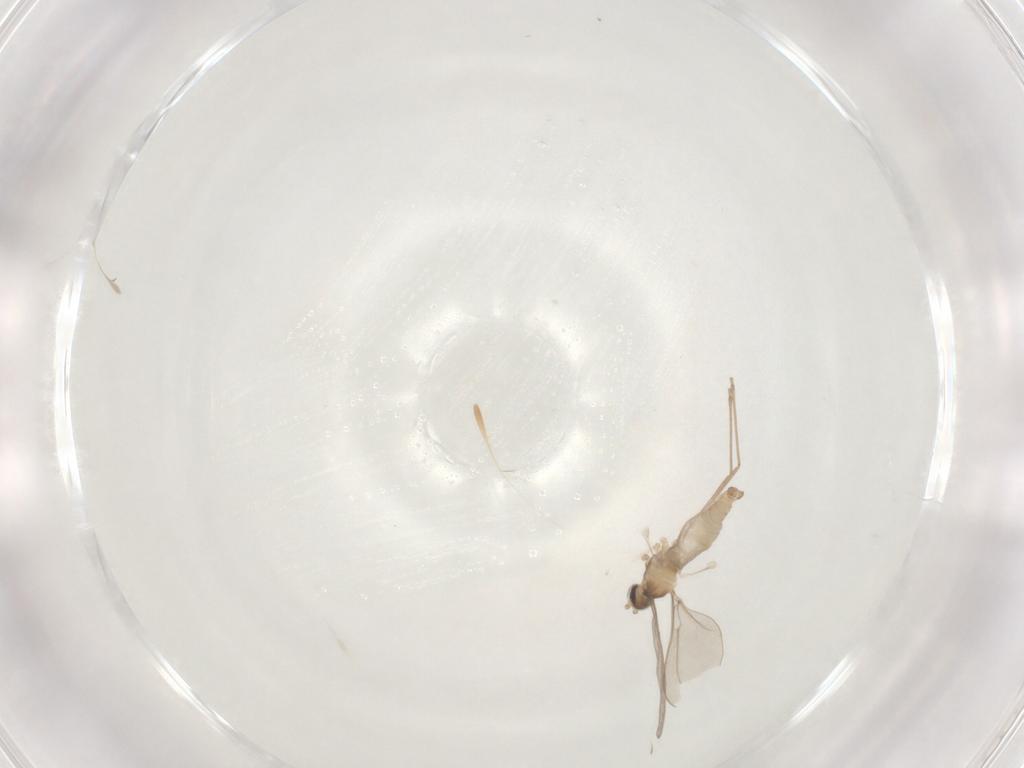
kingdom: Animalia
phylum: Arthropoda
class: Insecta
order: Diptera
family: Cecidomyiidae
